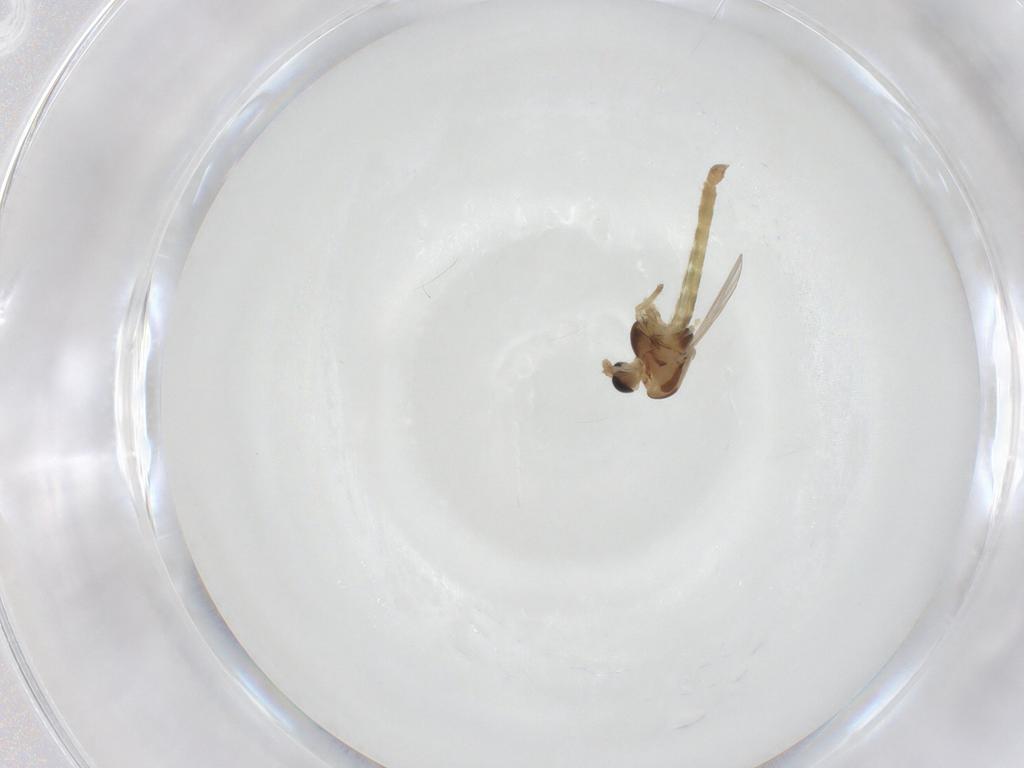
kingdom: Animalia
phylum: Arthropoda
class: Insecta
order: Diptera
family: Chironomidae
